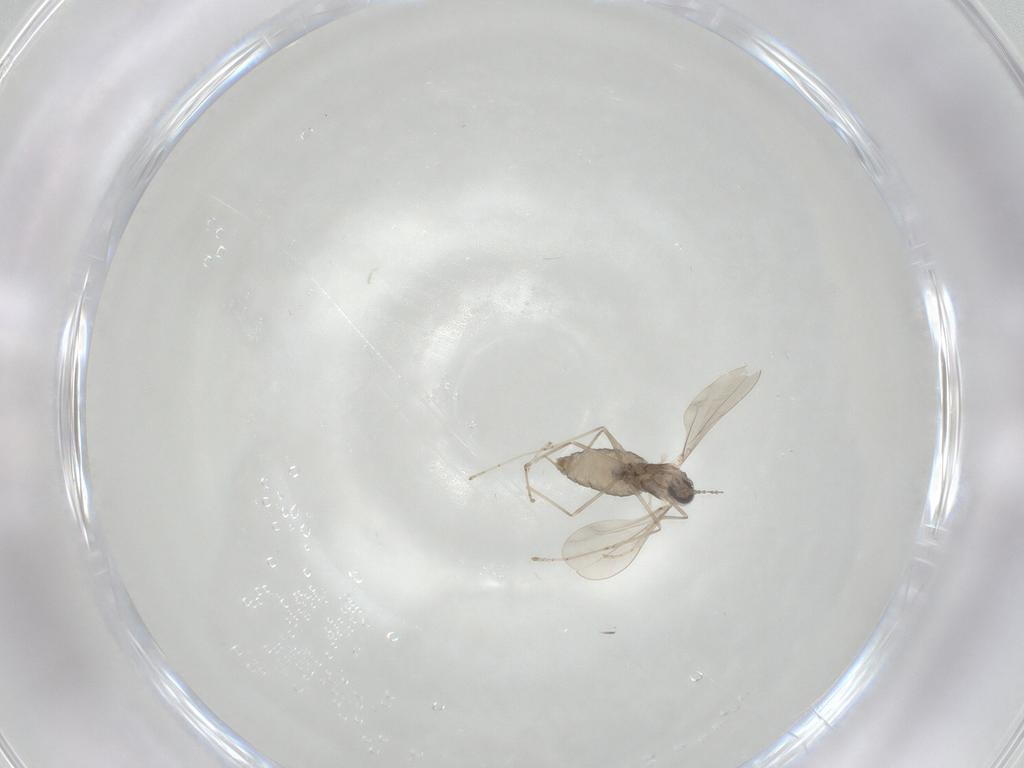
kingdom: Animalia
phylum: Arthropoda
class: Insecta
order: Diptera
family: Cecidomyiidae
